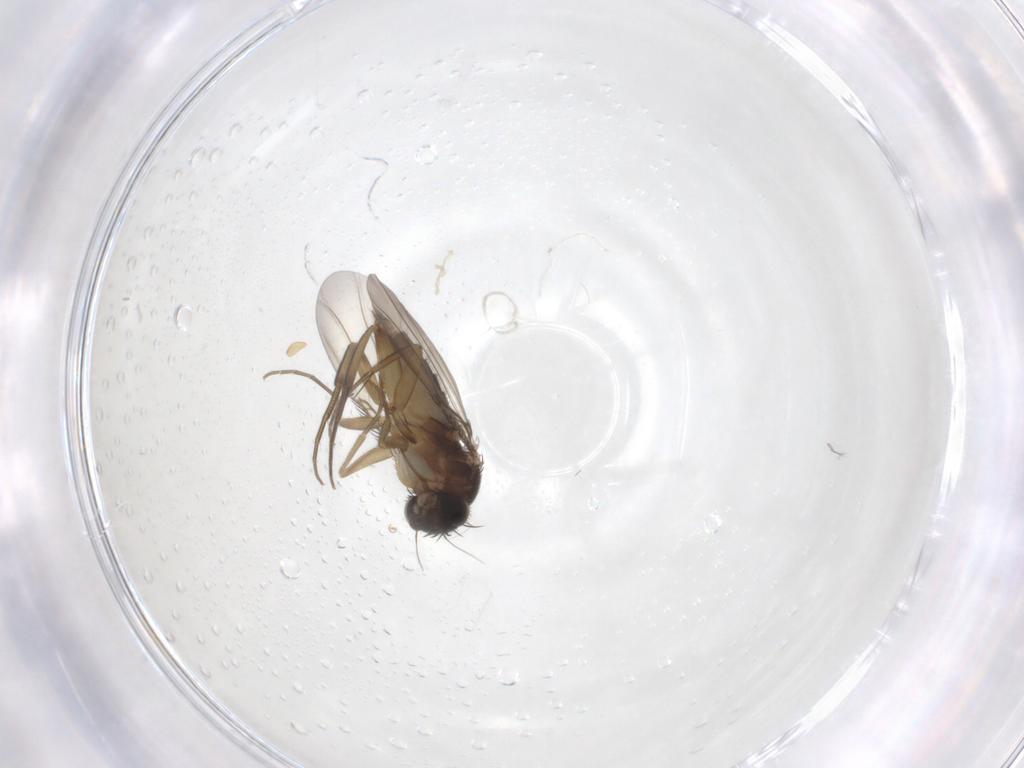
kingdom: Animalia
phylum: Arthropoda
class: Insecta
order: Diptera
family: Phoridae
